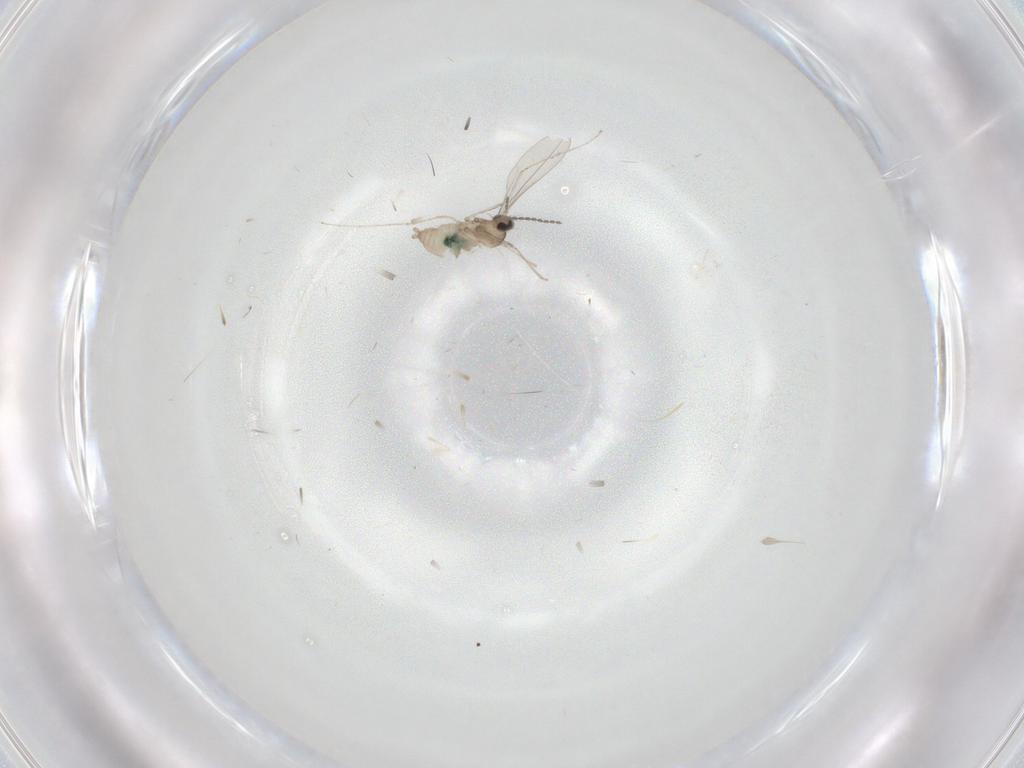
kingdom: Animalia
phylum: Arthropoda
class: Insecta
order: Diptera
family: Cecidomyiidae
